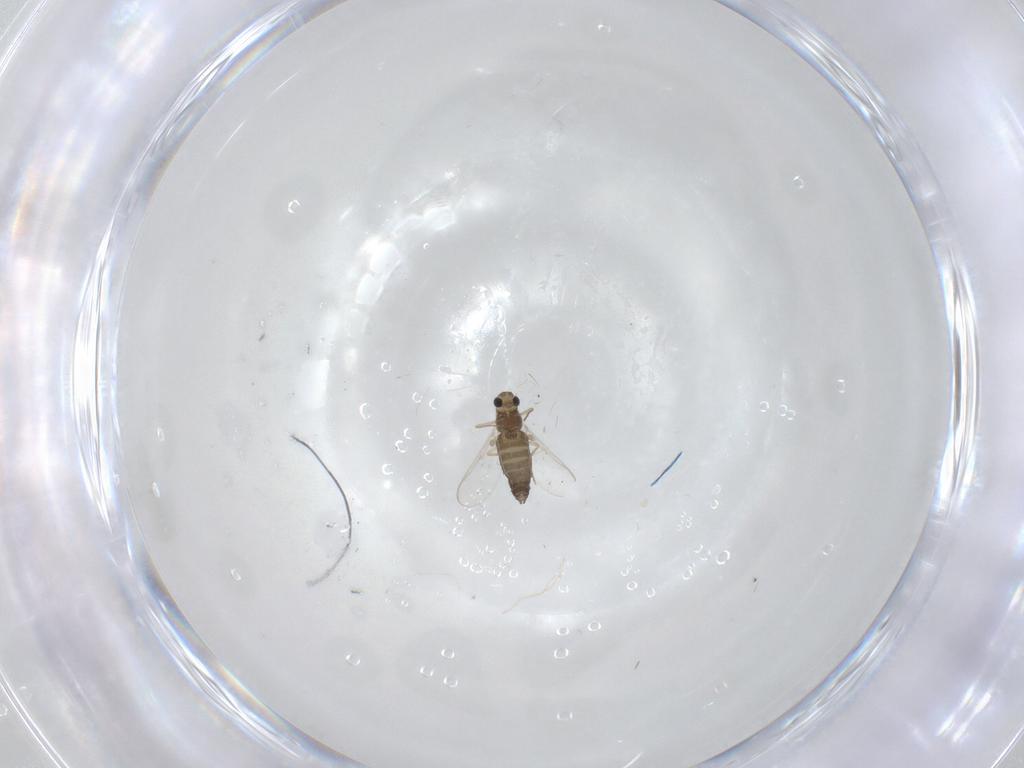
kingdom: Animalia
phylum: Arthropoda
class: Insecta
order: Diptera
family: Chironomidae
